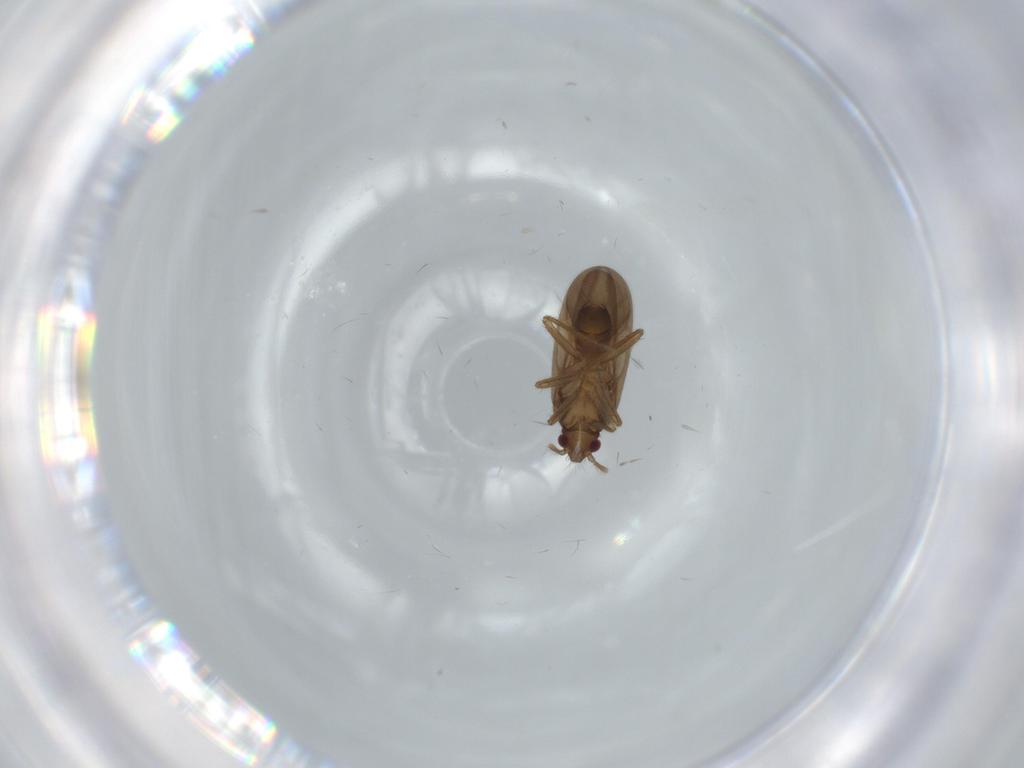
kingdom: Animalia
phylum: Arthropoda
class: Insecta
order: Hemiptera
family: Ceratocombidae
